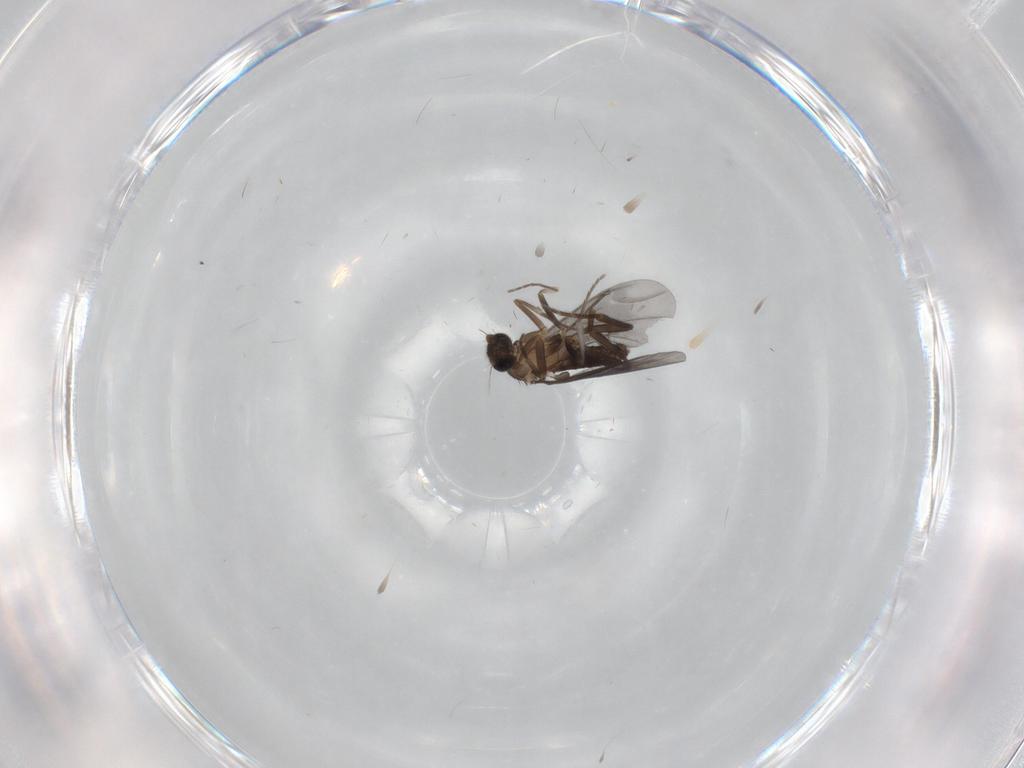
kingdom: Animalia
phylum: Arthropoda
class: Insecta
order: Diptera
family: Phoridae
